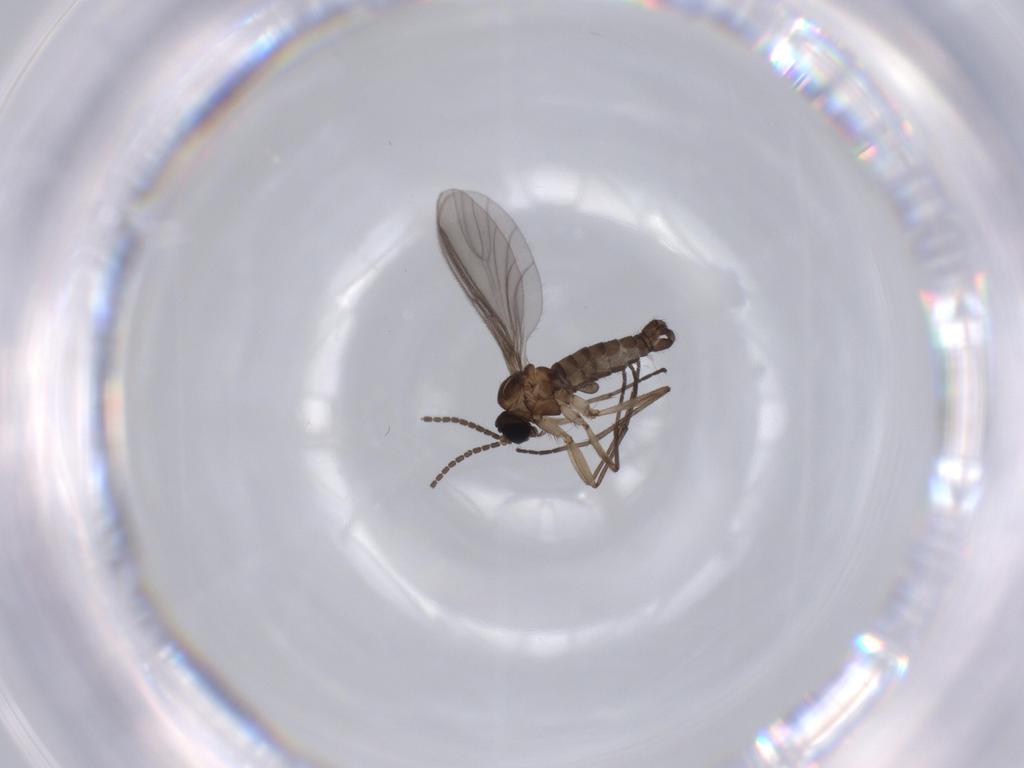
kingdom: Animalia
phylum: Arthropoda
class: Insecta
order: Diptera
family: Sciaridae
